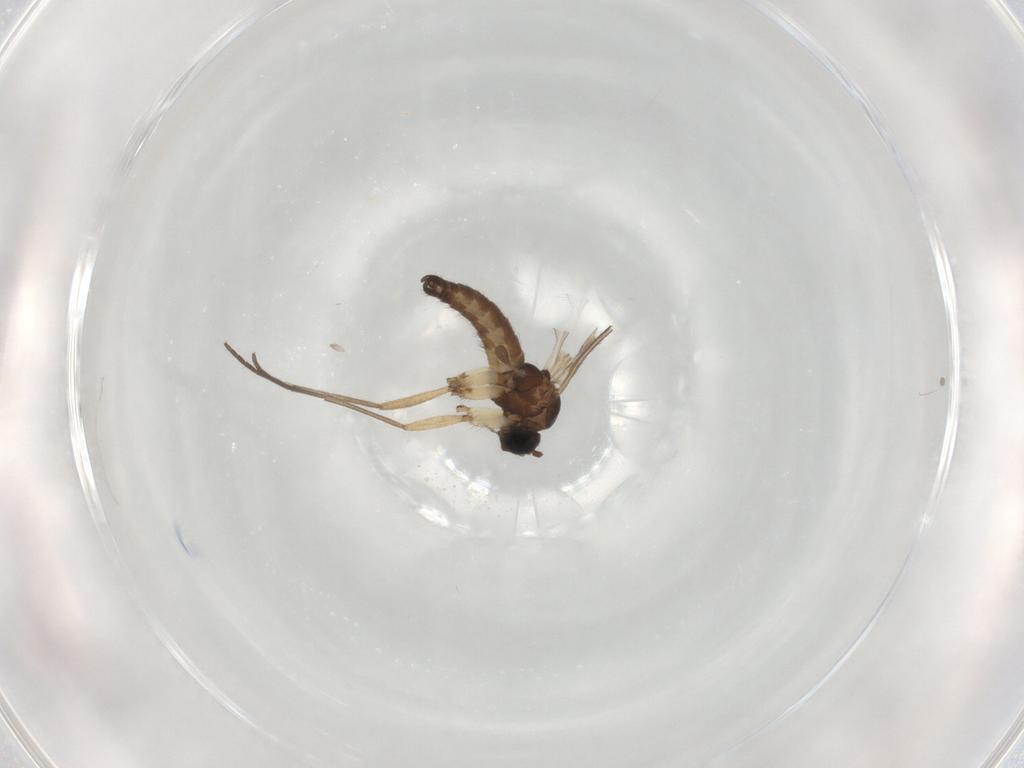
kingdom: Animalia
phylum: Arthropoda
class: Insecta
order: Diptera
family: Sciaridae
